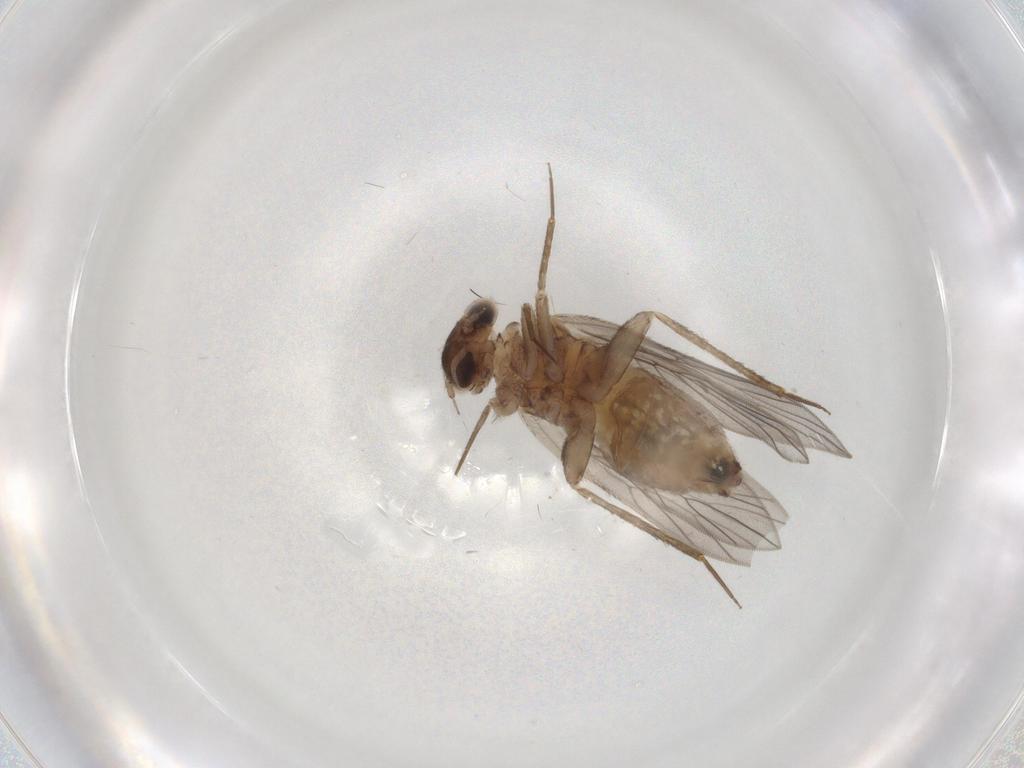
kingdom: Animalia
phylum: Arthropoda
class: Insecta
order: Psocodea
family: Lepidopsocidae
